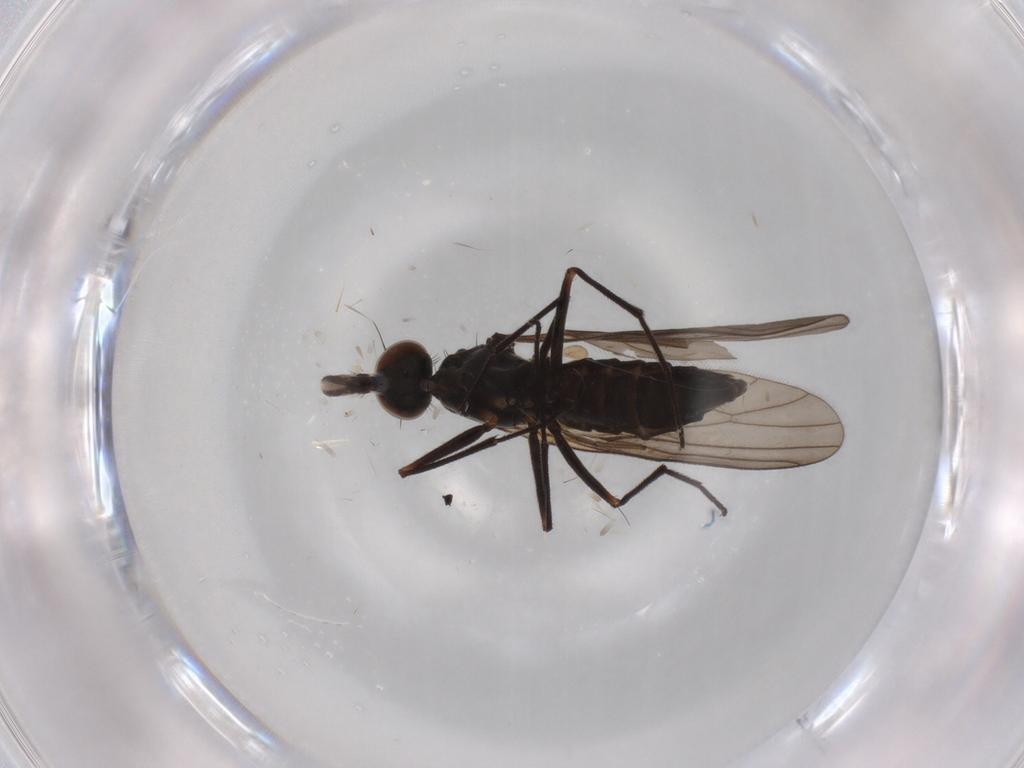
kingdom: Animalia
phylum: Arthropoda
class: Insecta
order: Diptera
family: Brachystomatidae
